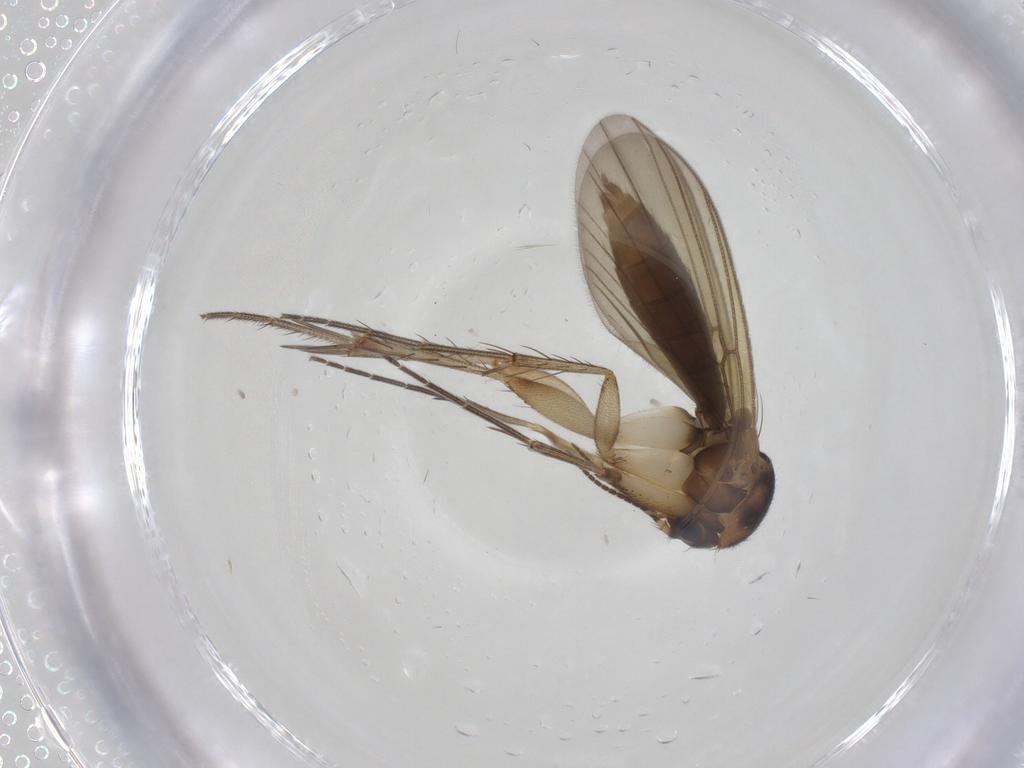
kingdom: Animalia
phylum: Arthropoda
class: Insecta
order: Diptera
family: Mycetophilidae
